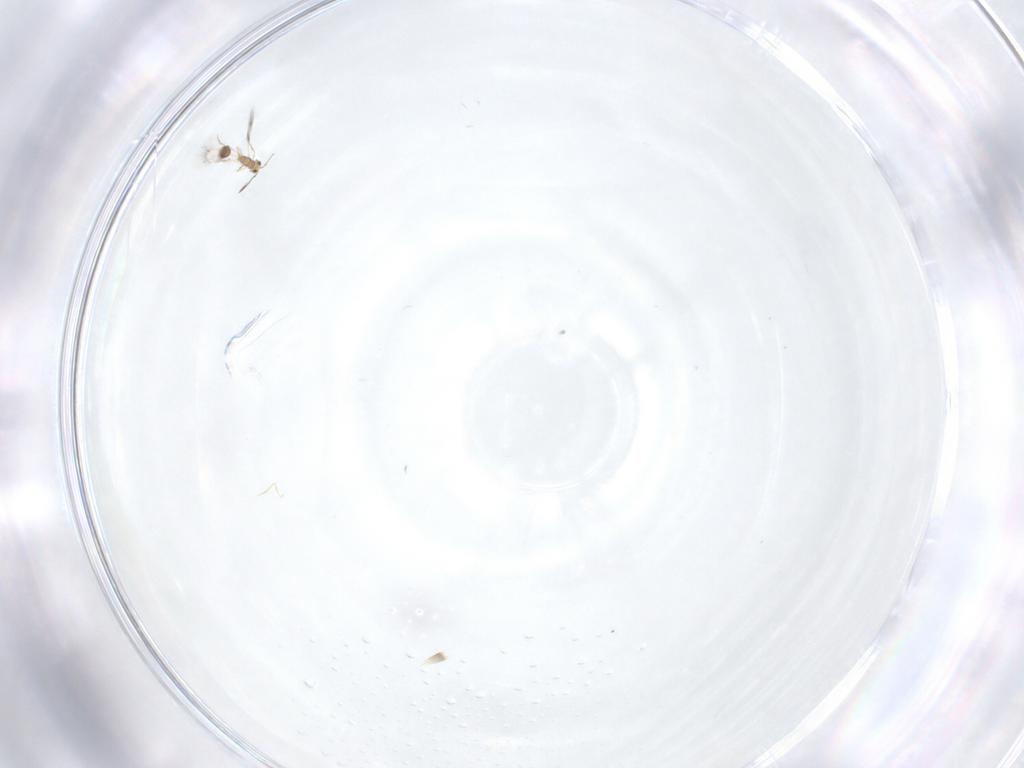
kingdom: Animalia
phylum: Arthropoda
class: Insecta
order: Hymenoptera
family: Mymarommatidae
